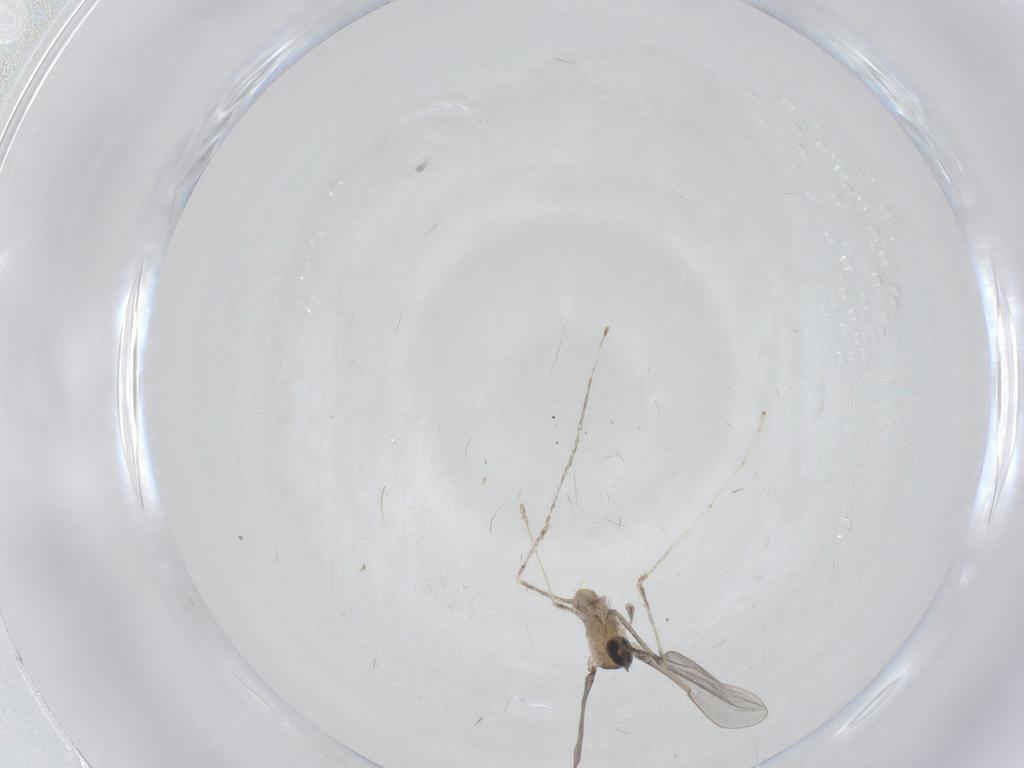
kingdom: Animalia
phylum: Arthropoda
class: Insecta
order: Diptera
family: Cecidomyiidae
